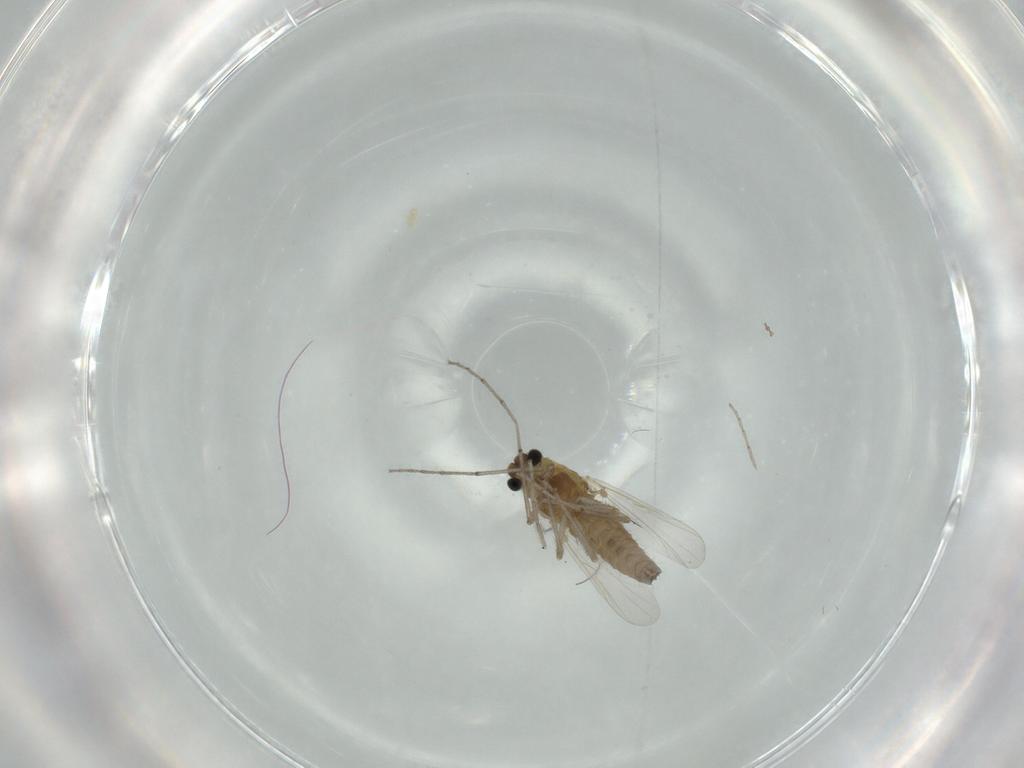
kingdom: Animalia
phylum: Arthropoda
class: Insecta
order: Diptera
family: Chironomidae
